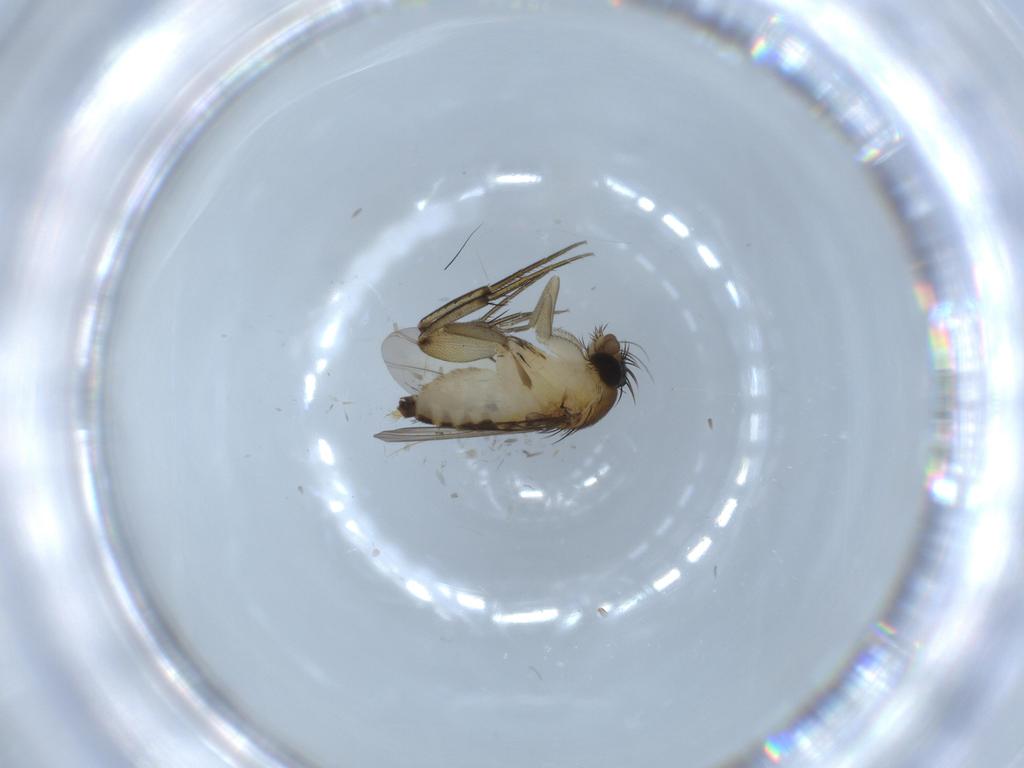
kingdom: Animalia
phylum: Arthropoda
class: Insecta
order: Diptera
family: Phoridae
